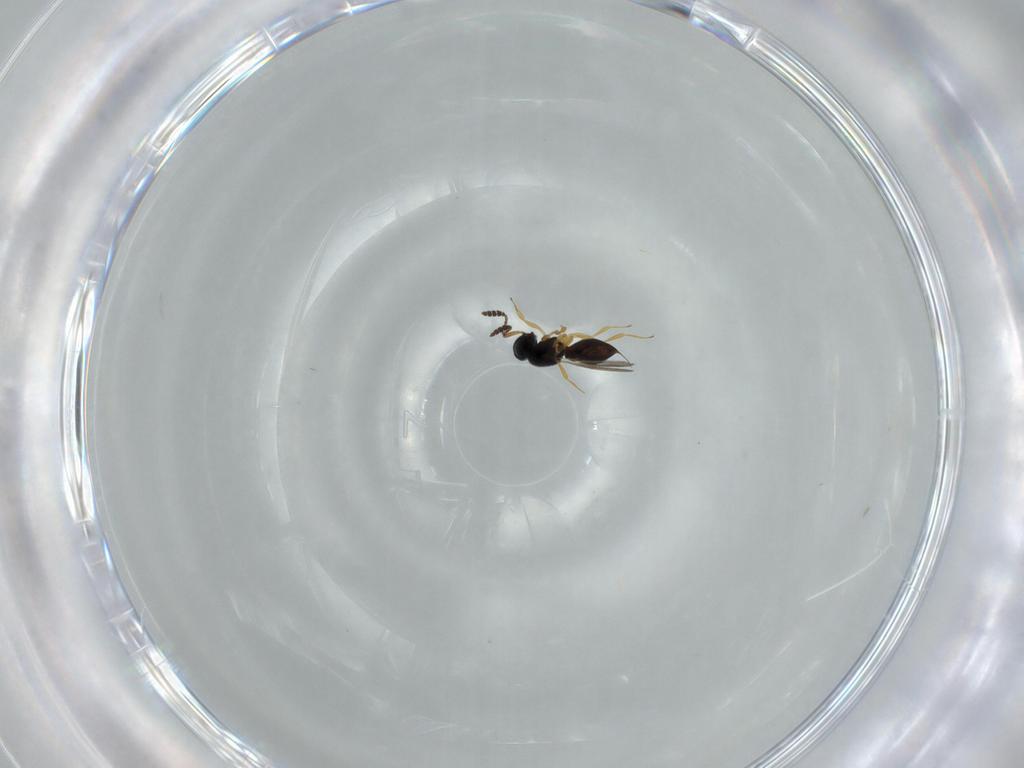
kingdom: Animalia
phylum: Arthropoda
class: Insecta
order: Hymenoptera
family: Scelionidae
